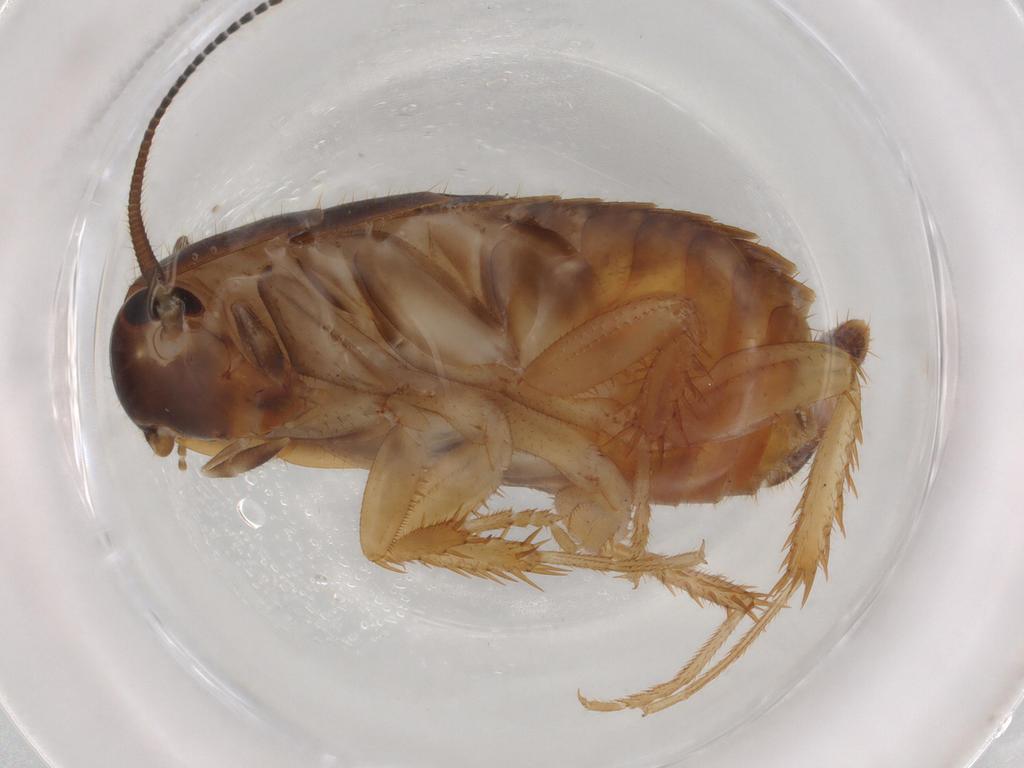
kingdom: Animalia
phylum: Arthropoda
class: Insecta
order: Blattodea
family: Ectobiidae
